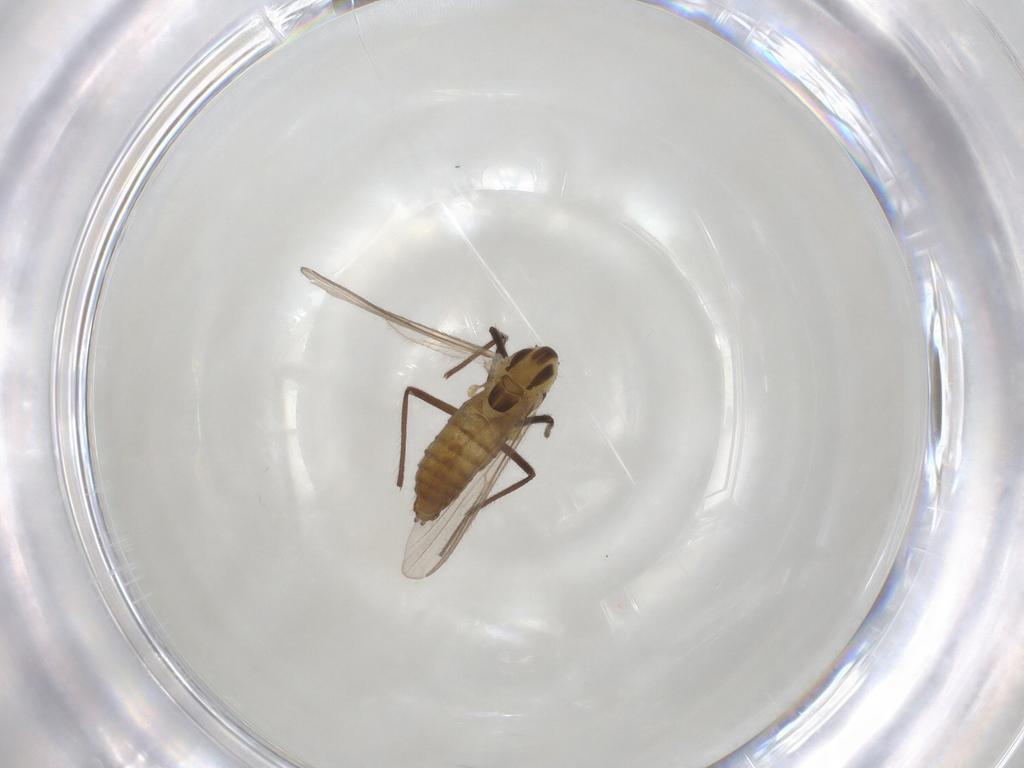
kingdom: Animalia
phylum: Arthropoda
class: Insecta
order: Diptera
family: Chironomidae
